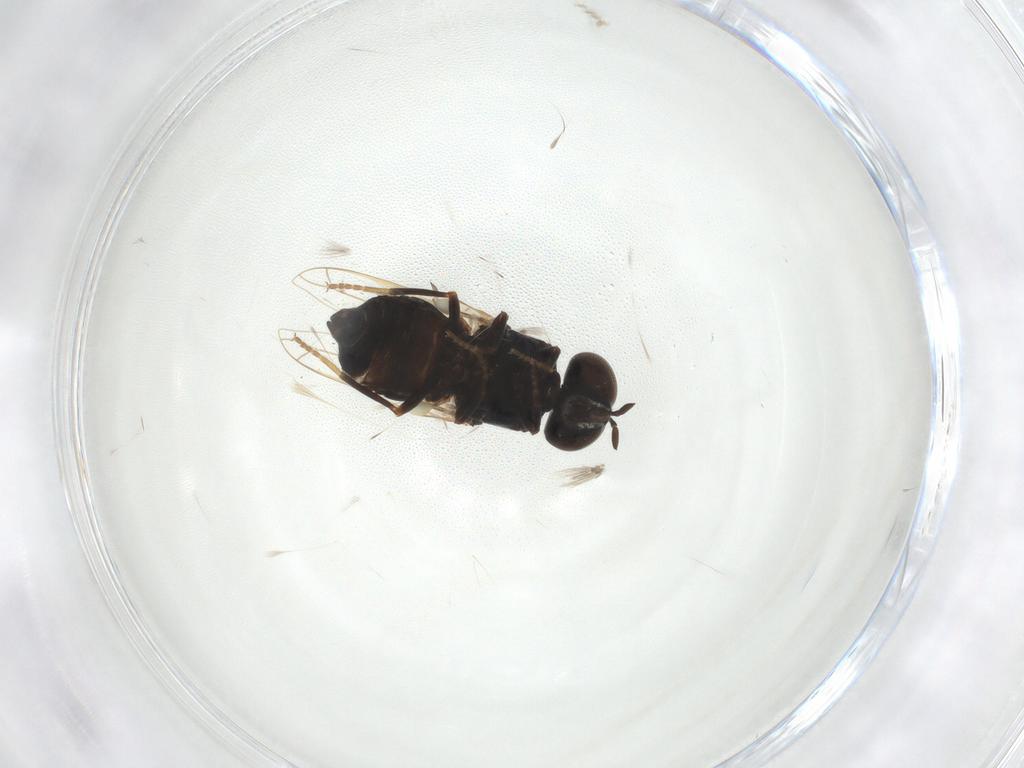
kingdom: Animalia
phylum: Arthropoda
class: Insecta
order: Diptera
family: Scenopinidae
